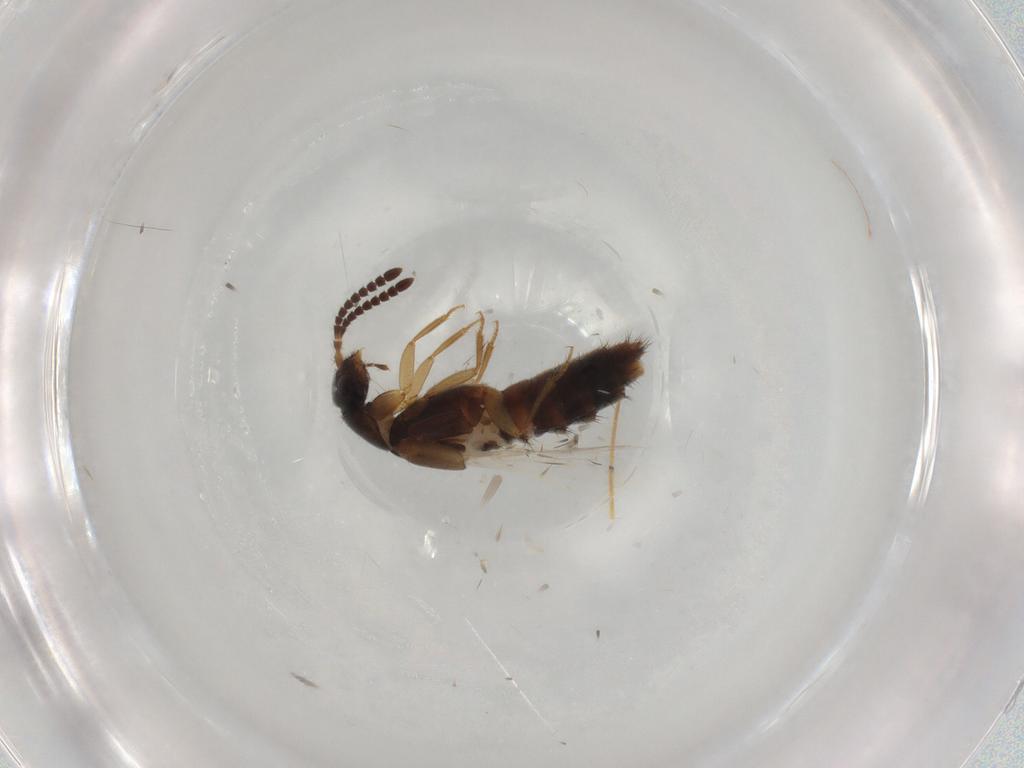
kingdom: Animalia
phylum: Arthropoda
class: Insecta
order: Coleoptera
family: Staphylinidae
